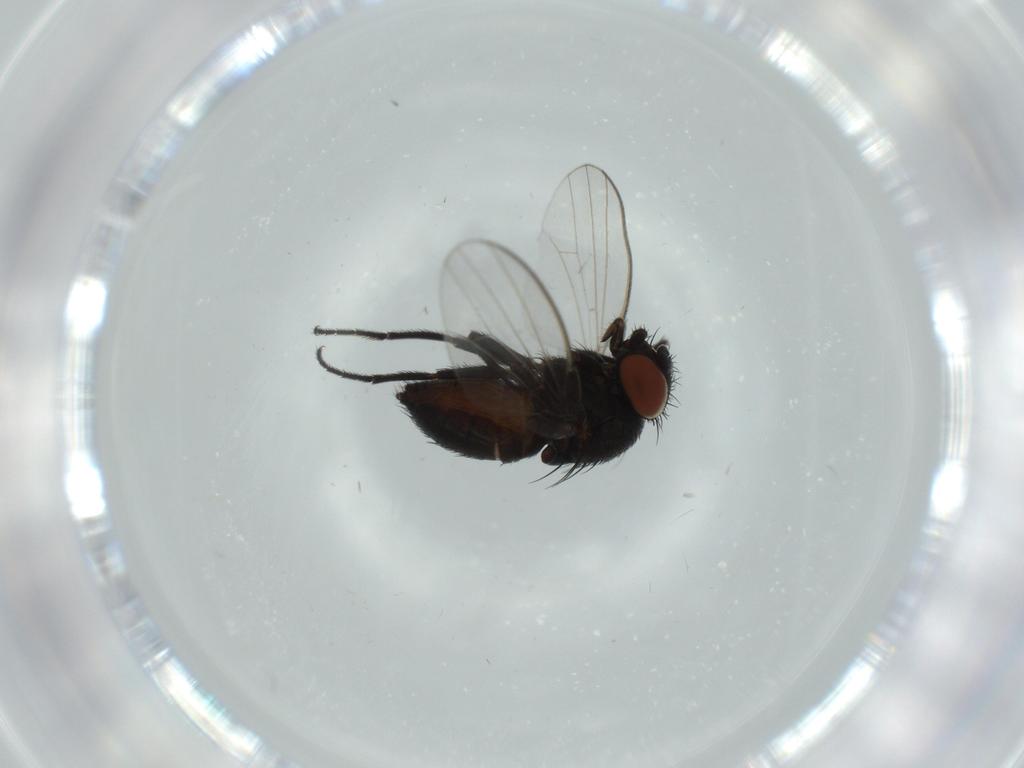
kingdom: Animalia
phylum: Arthropoda
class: Insecta
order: Diptera
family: Milichiidae
